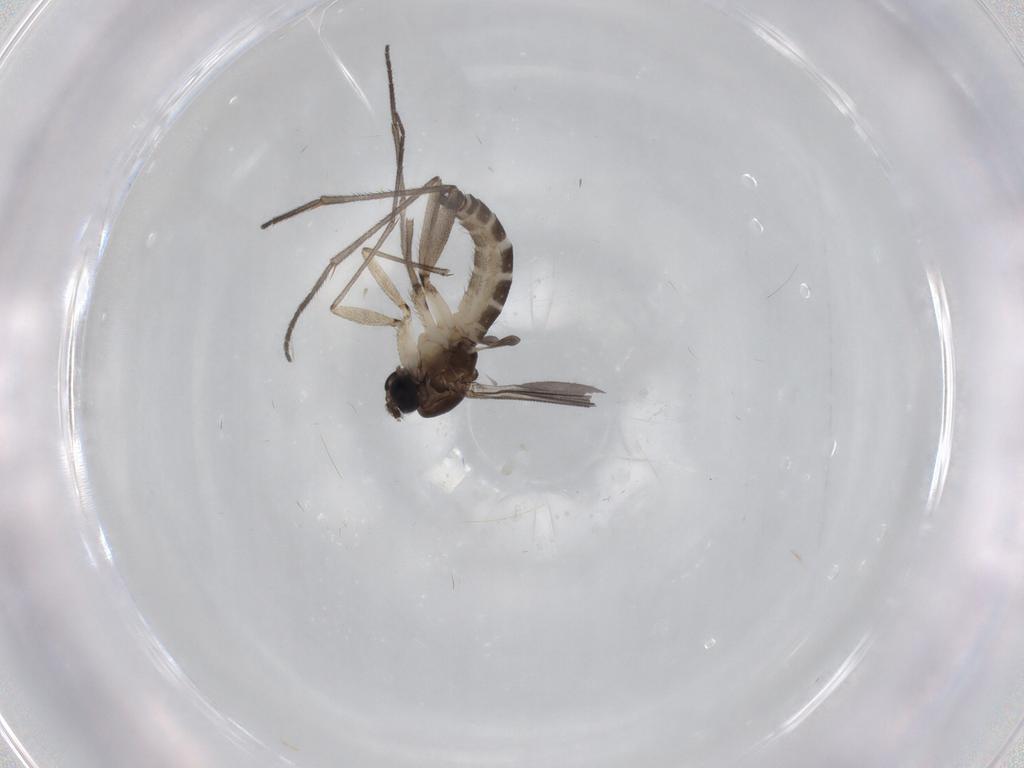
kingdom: Animalia
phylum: Arthropoda
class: Insecta
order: Diptera
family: Sciaridae
